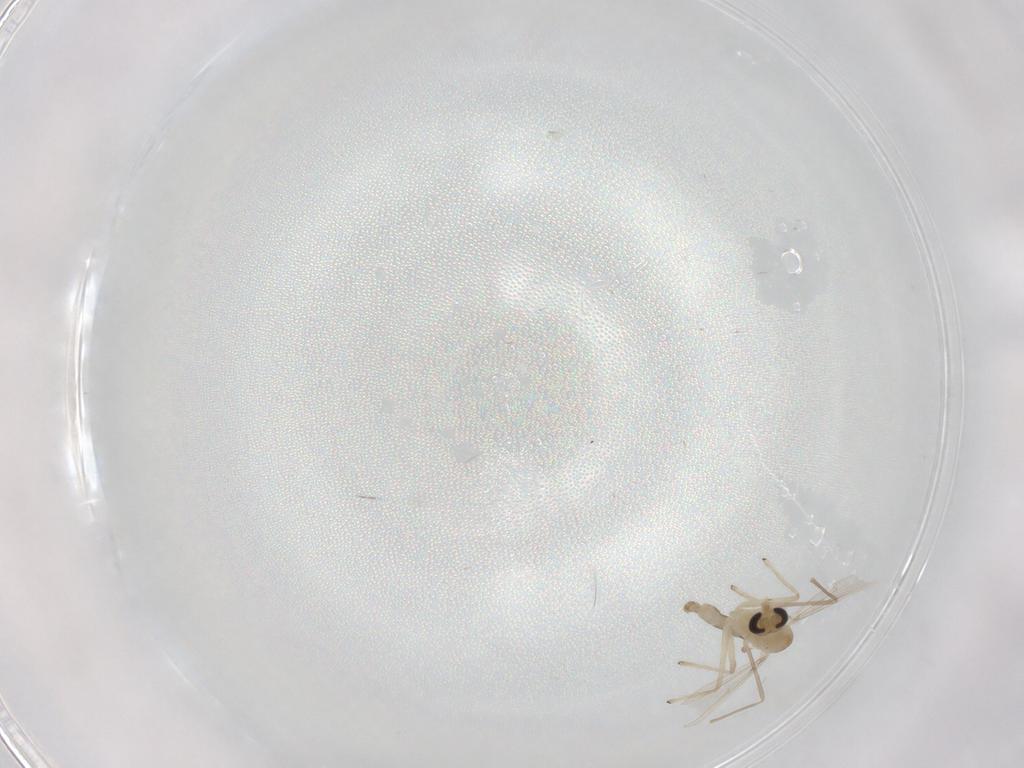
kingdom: Animalia
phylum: Arthropoda
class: Insecta
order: Diptera
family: Chironomidae
